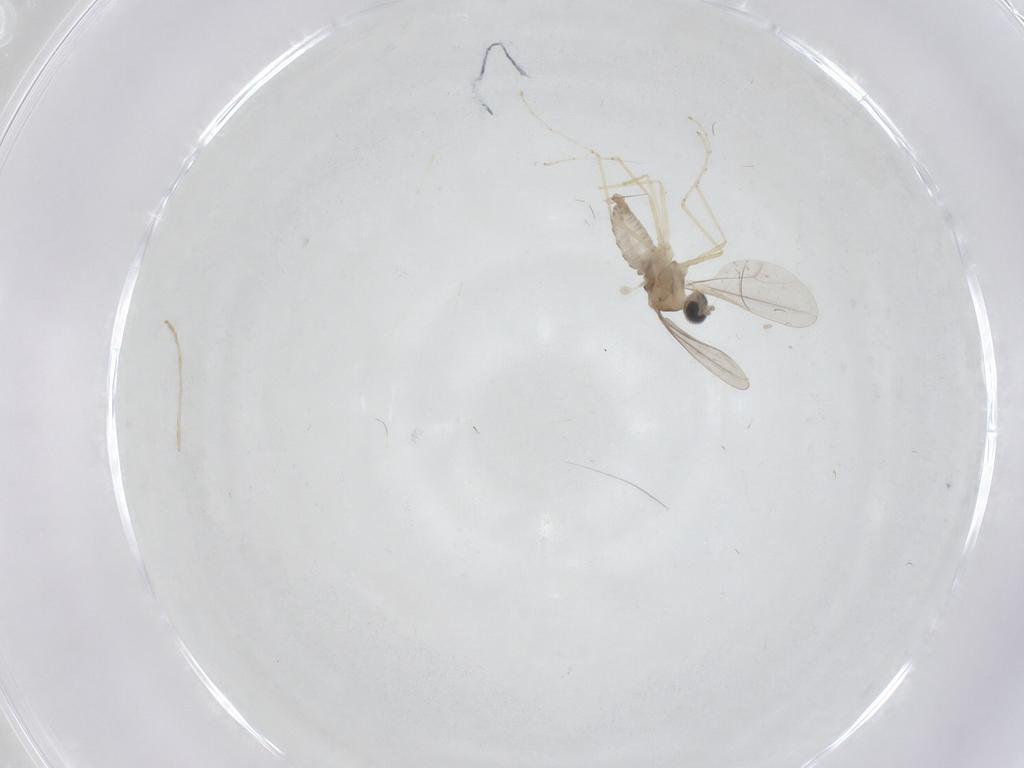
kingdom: Animalia
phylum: Arthropoda
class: Insecta
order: Diptera
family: Cecidomyiidae
